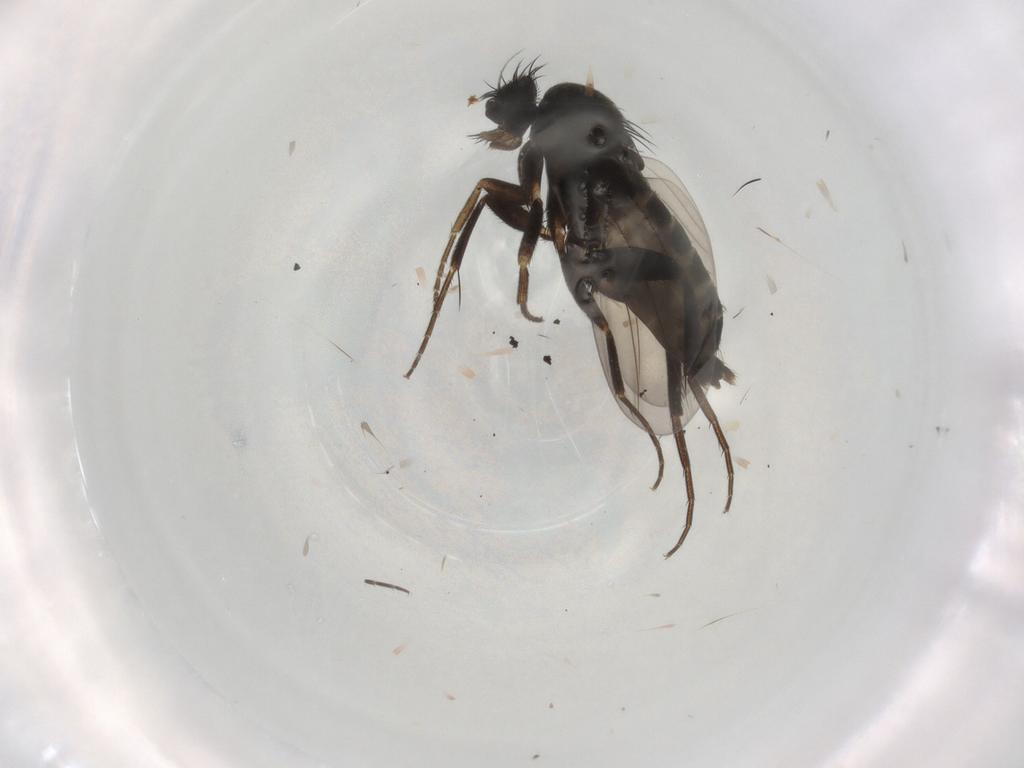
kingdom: Animalia
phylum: Arthropoda
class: Insecta
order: Diptera
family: Phoridae
